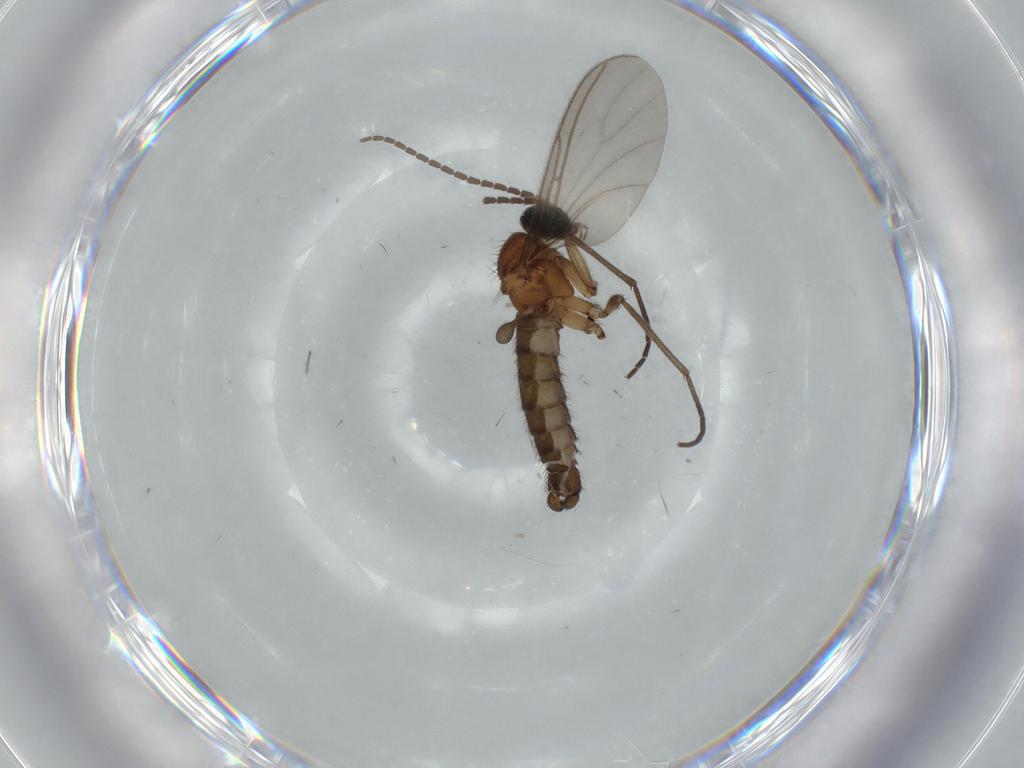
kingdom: Animalia
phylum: Arthropoda
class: Insecta
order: Diptera
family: Sciaridae
